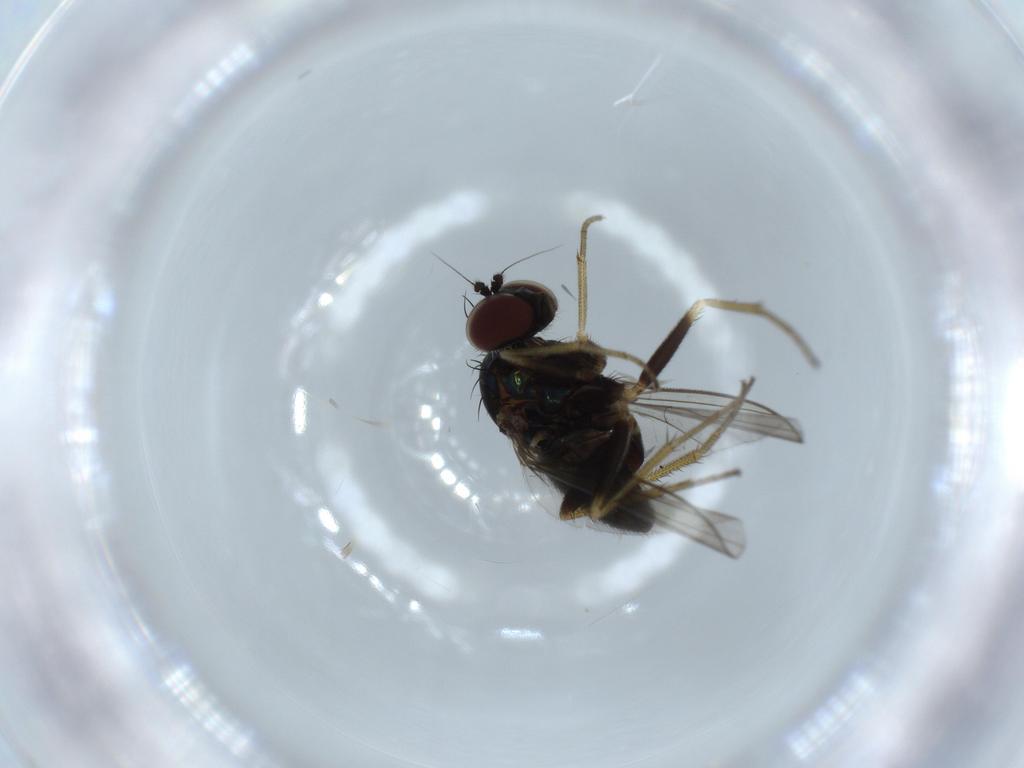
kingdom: Animalia
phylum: Arthropoda
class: Insecta
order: Diptera
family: Dolichopodidae
